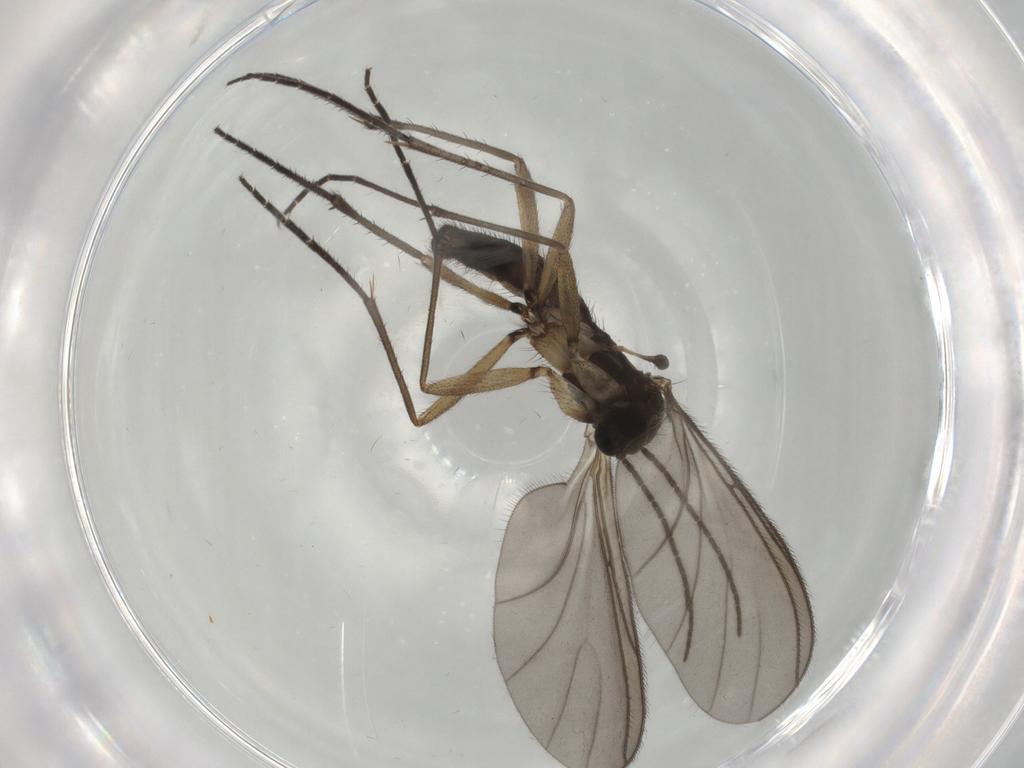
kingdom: Animalia
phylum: Arthropoda
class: Insecta
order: Diptera
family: Sciaridae
